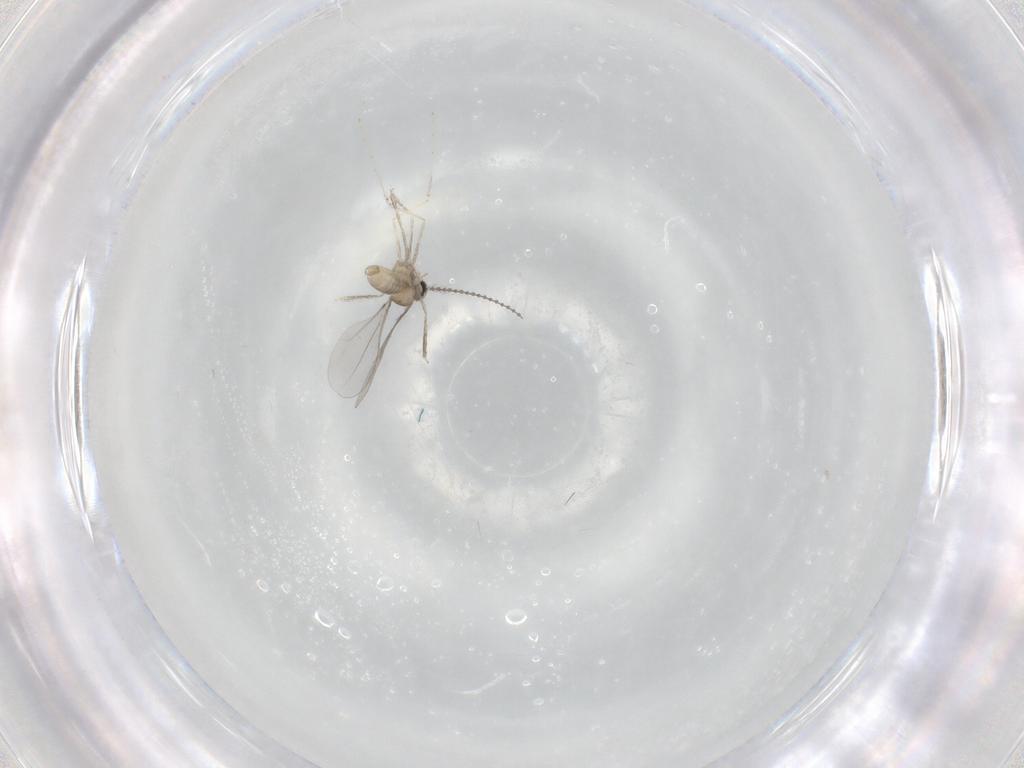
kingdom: Animalia
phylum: Arthropoda
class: Insecta
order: Diptera
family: Cecidomyiidae
